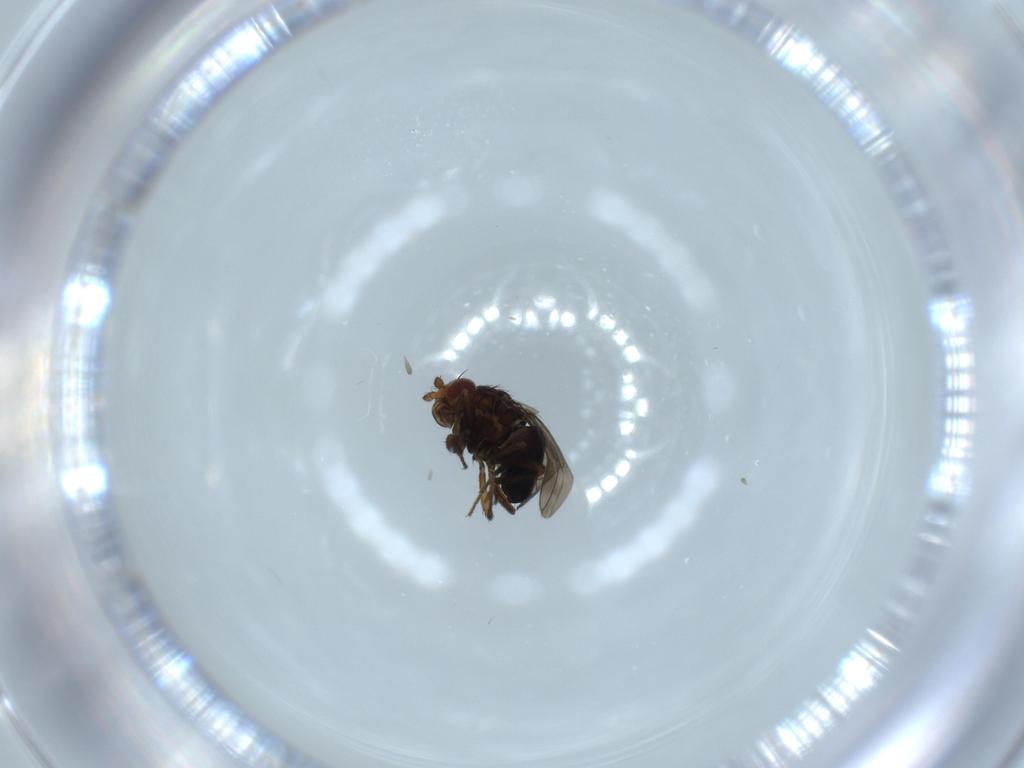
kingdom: Animalia
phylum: Arthropoda
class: Insecta
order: Diptera
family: Sphaeroceridae
